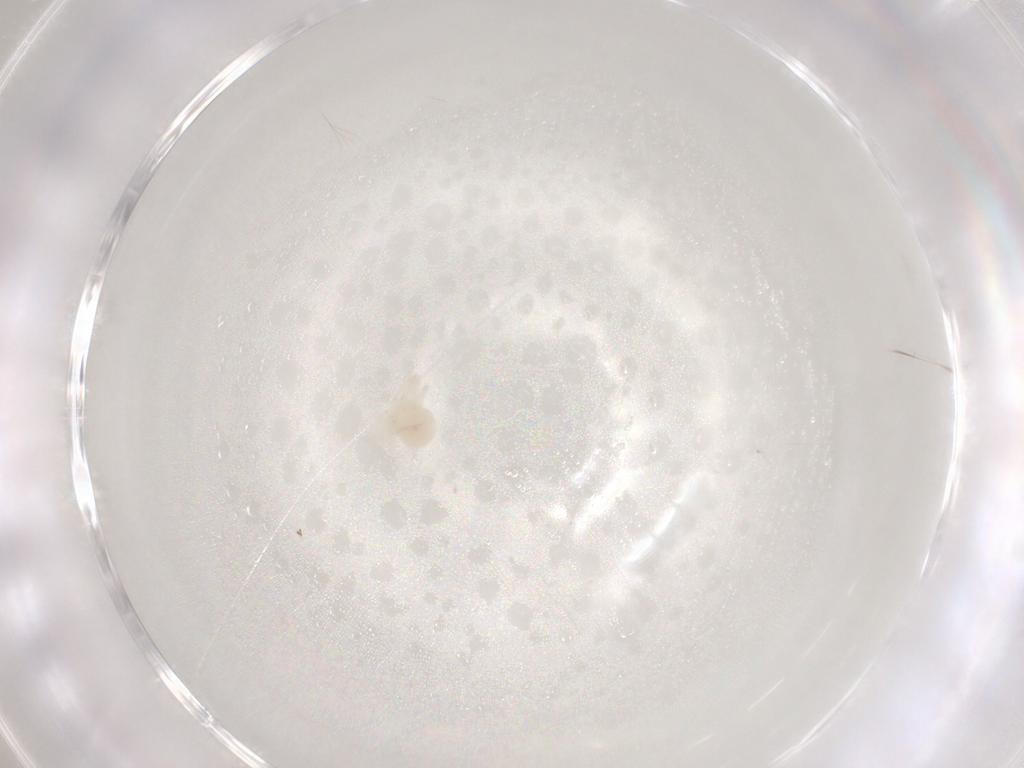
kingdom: Animalia
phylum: Arthropoda
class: Arachnida
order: Trombidiformes
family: Anystidae
